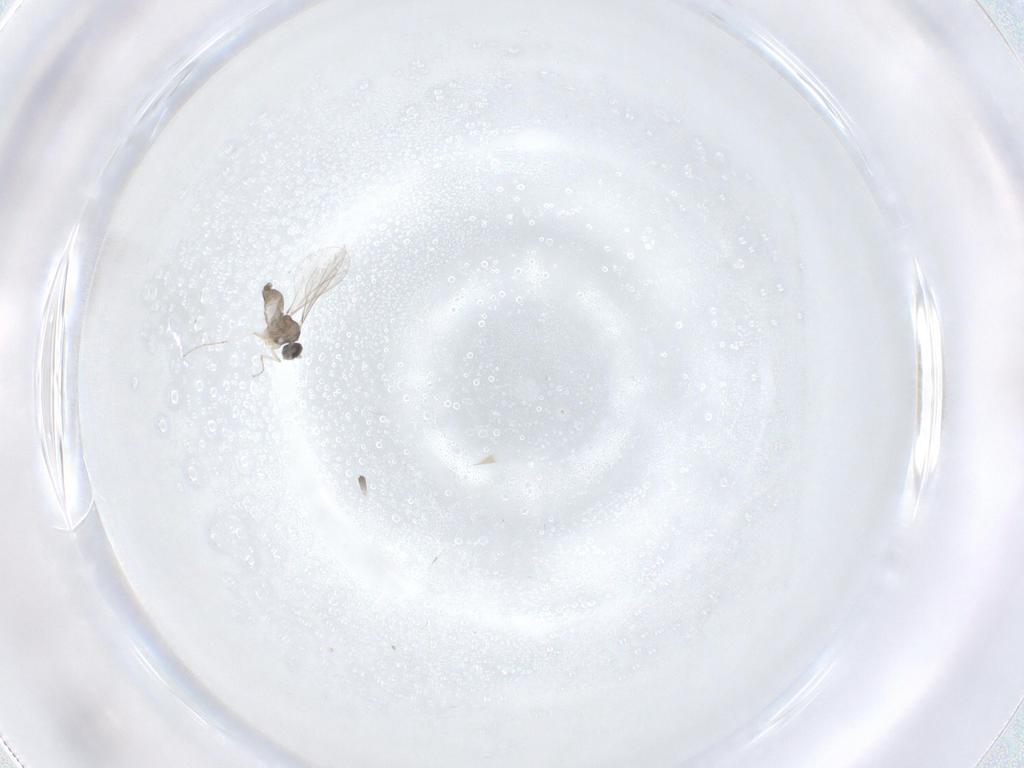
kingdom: Animalia
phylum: Arthropoda
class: Insecta
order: Diptera
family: Cecidomyiidae
